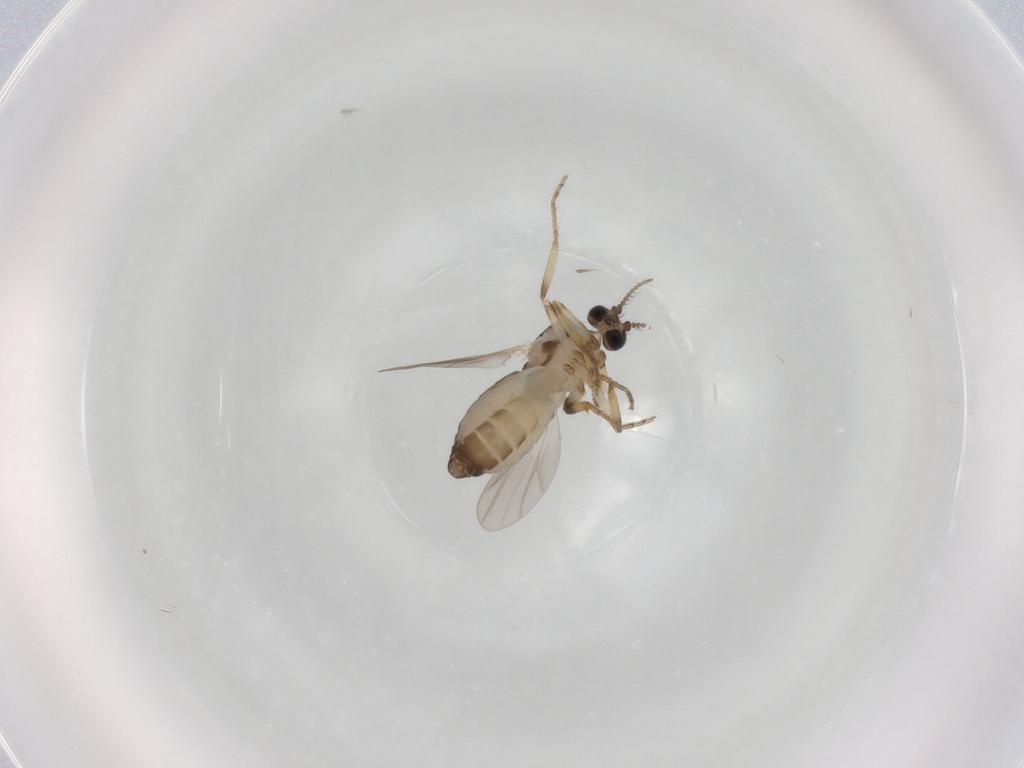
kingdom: Animalia
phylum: Arthropoda
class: Insecta
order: Diptera
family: Ceratopogonidae
